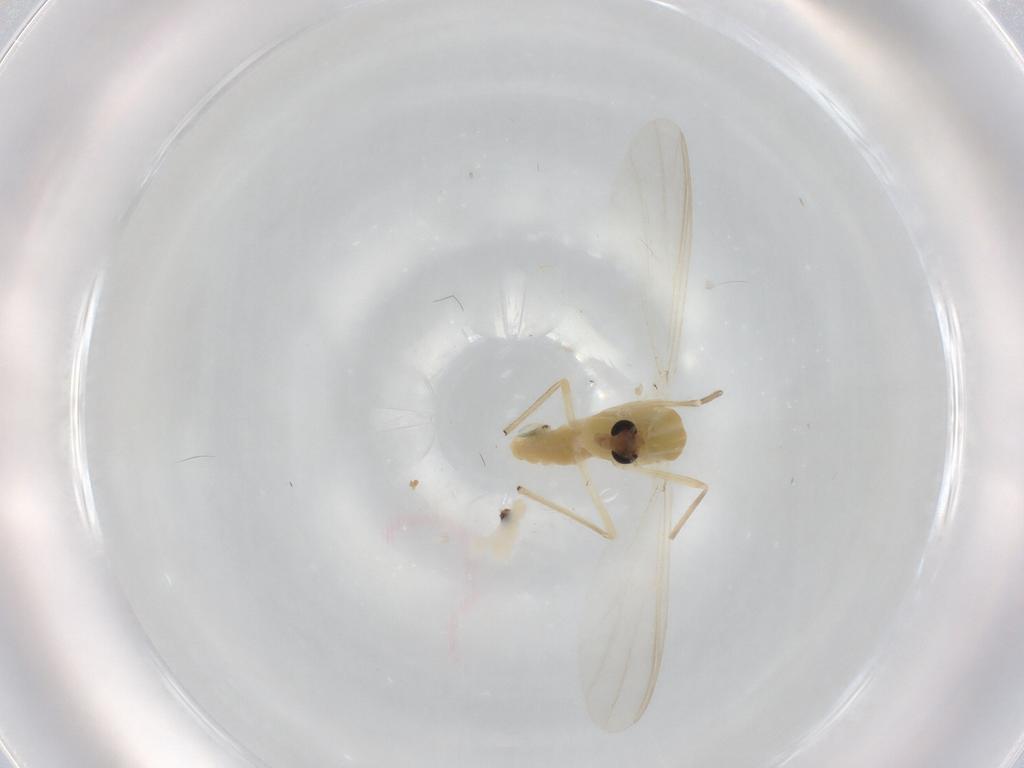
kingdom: Animalia
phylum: Arthropoda
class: Insecta
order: Diptera
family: Chironomidae
